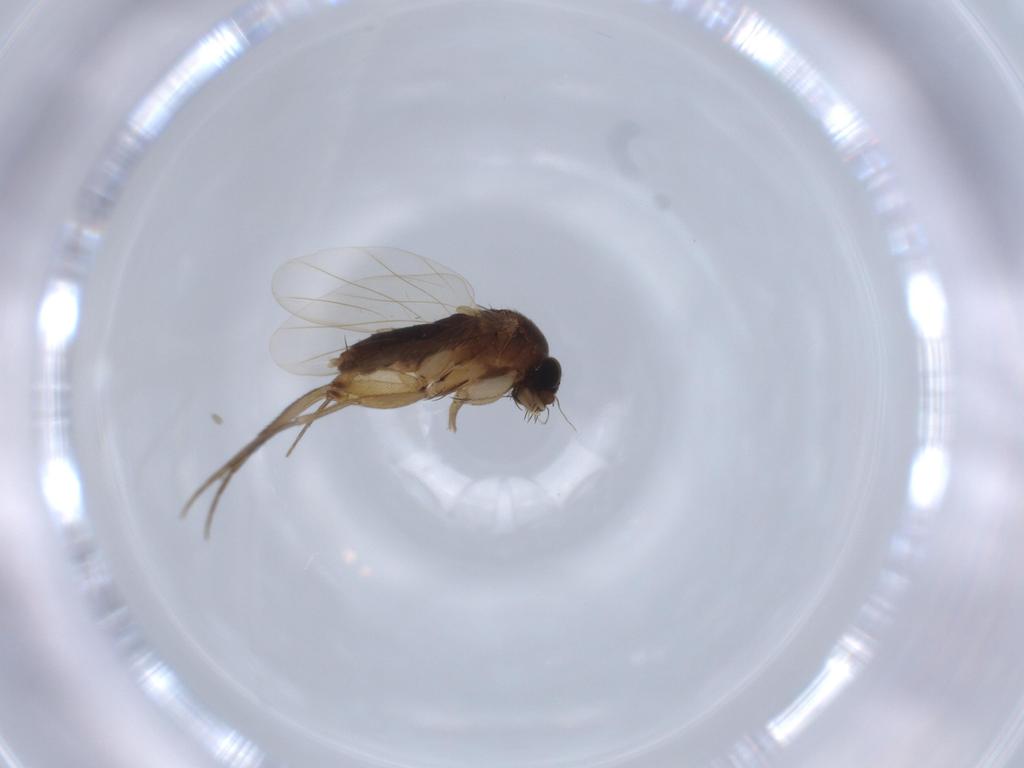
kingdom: Animalia
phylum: Arthropoda
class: Insecta
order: Diptera
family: Phoridae
